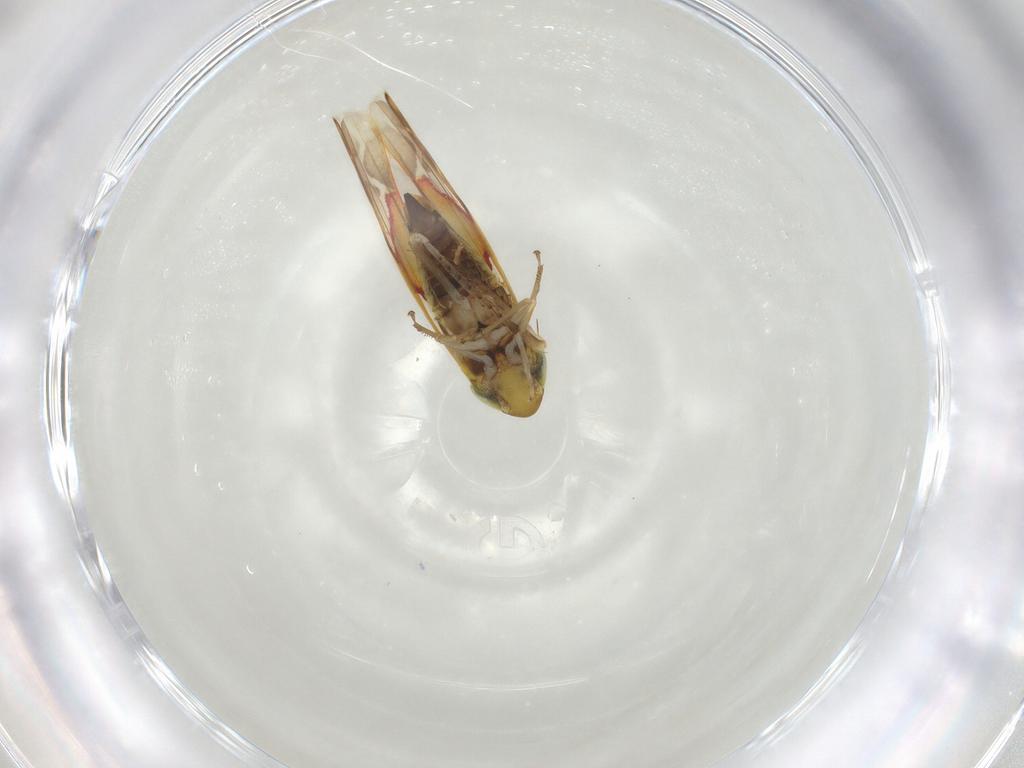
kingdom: Animalia
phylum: Arthropoda
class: Insecta
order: Hemiptera
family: Cicadellidae
